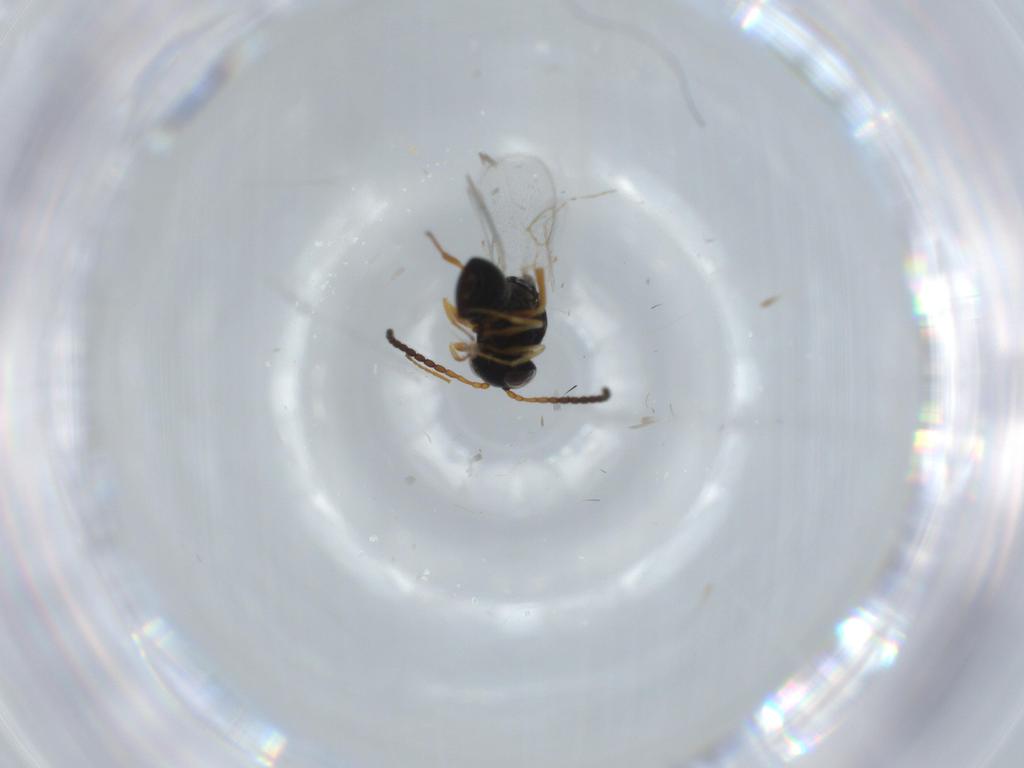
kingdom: Animalia
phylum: Arthropoda
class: Insecta
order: Hymenoptera
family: Figitidae
